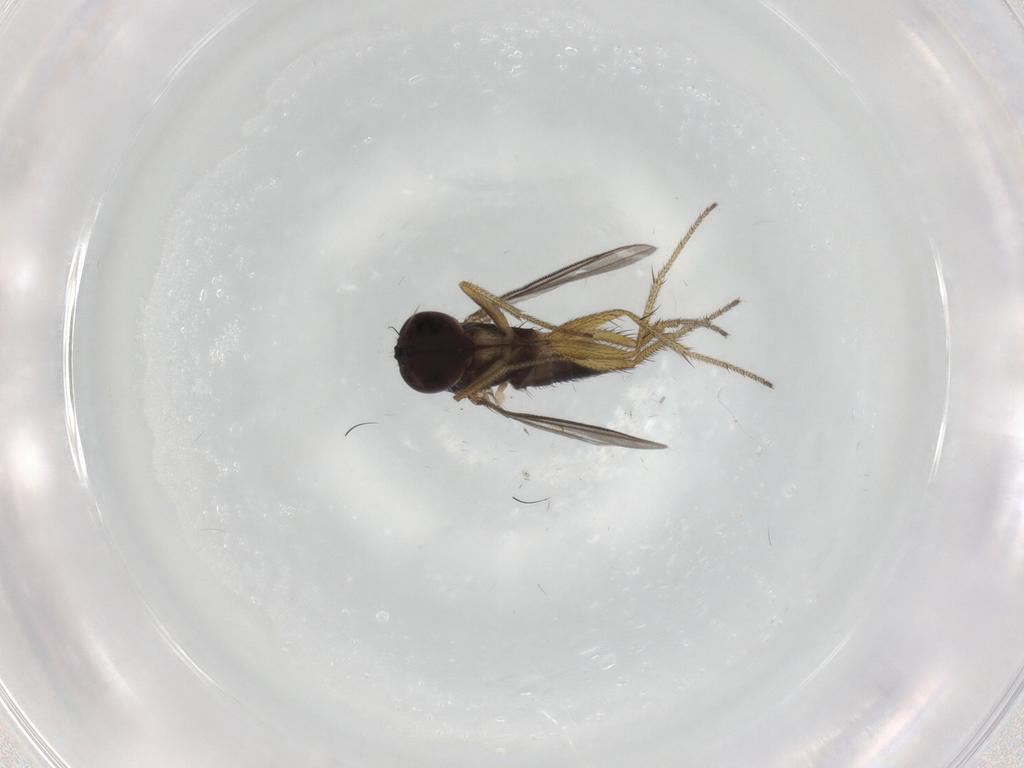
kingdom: Animalia
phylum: Arthropoda
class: Insecta
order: Diptera
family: Dolichopodidae
